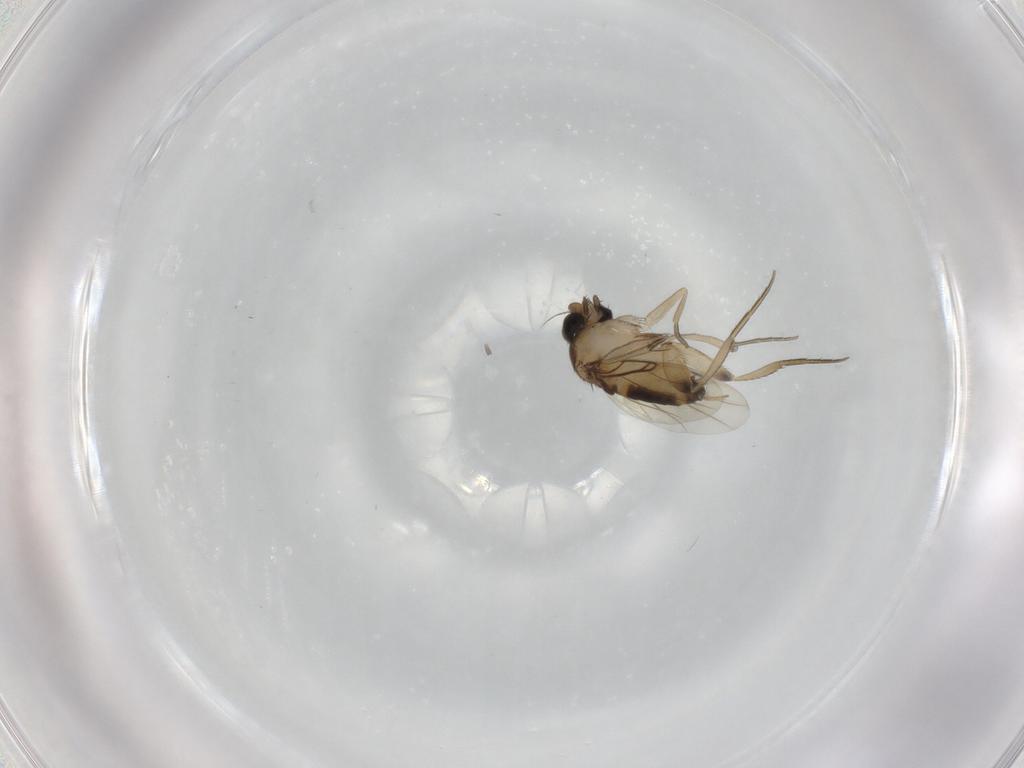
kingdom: Animalia
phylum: Arthropoda
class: Insecta
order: Diptera
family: Phoridae
